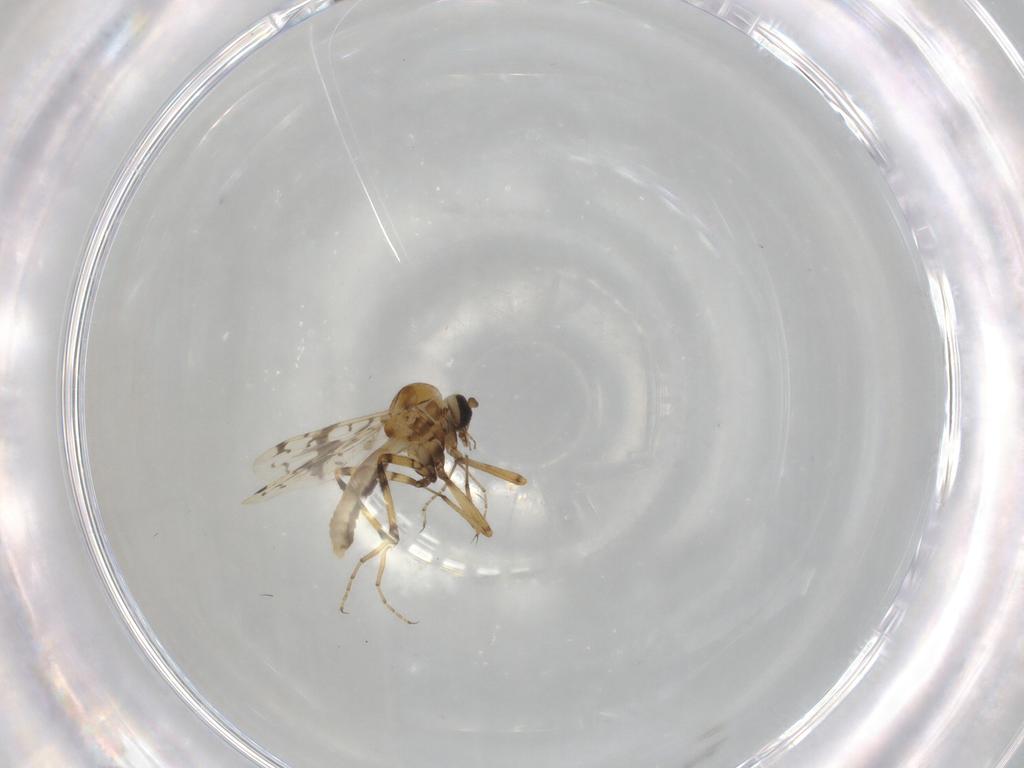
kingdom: Animalia
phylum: Arthropoda
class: Insecta
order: Diptera
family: Ceratopogonidae
